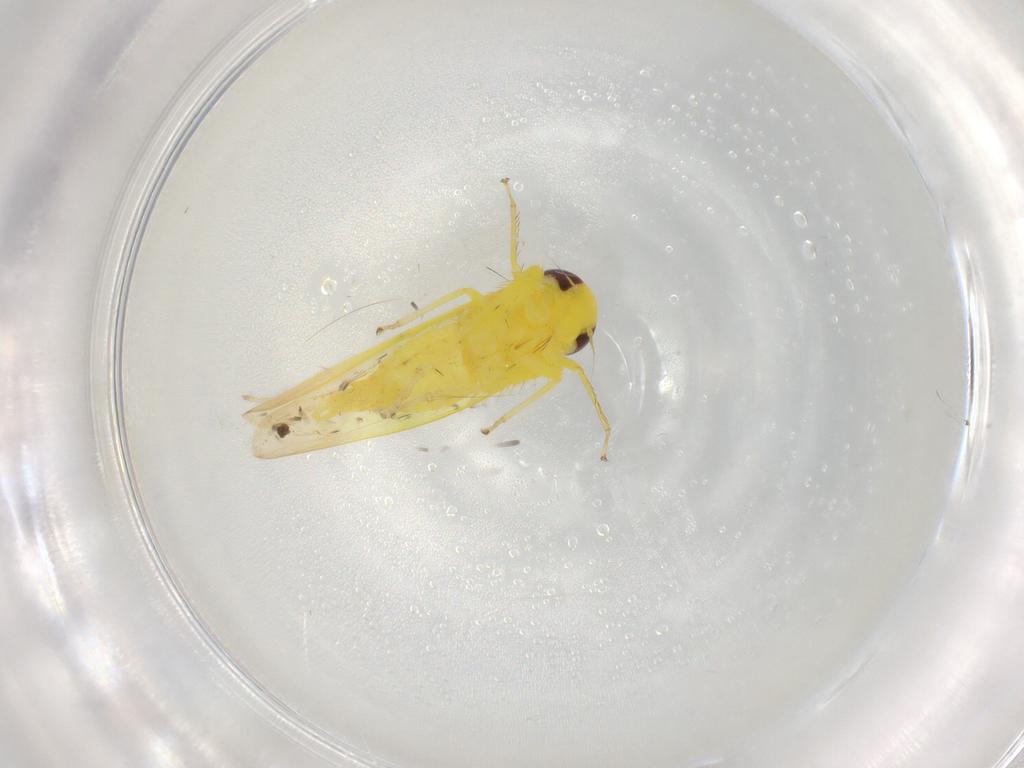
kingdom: Animalia
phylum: Arthropoda
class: Insecta
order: Hemiptera
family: Cicadellidae
